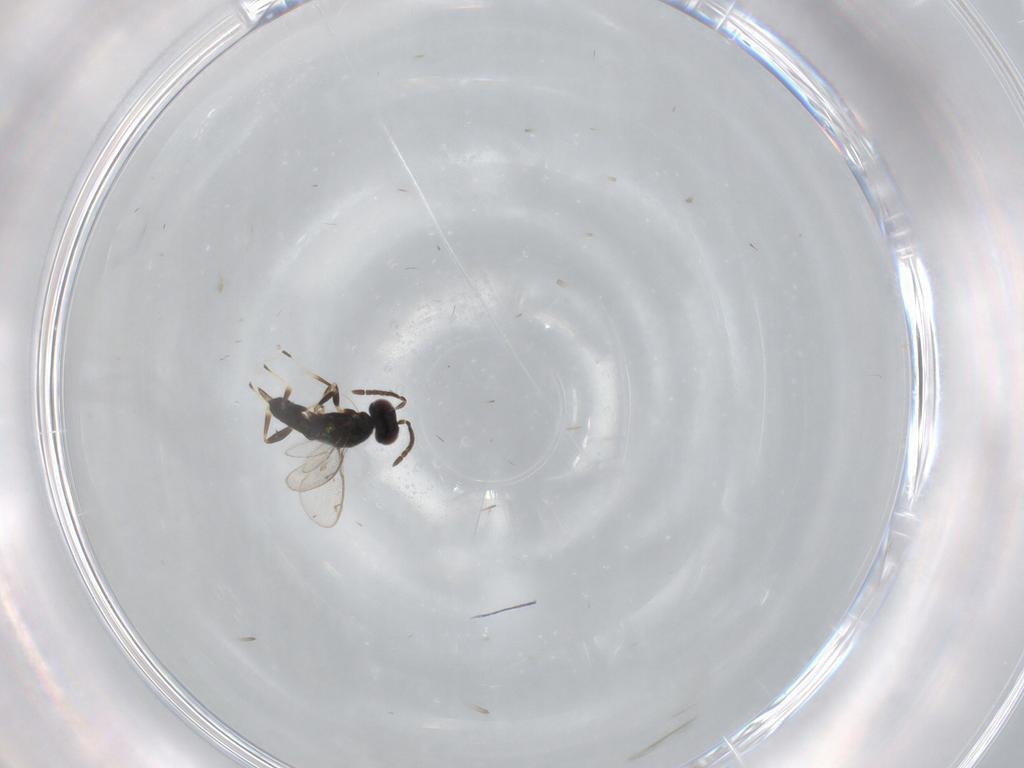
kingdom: Animalia
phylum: Arthropoda
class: Insecta
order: Hymenoptera
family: Eupelmidae
